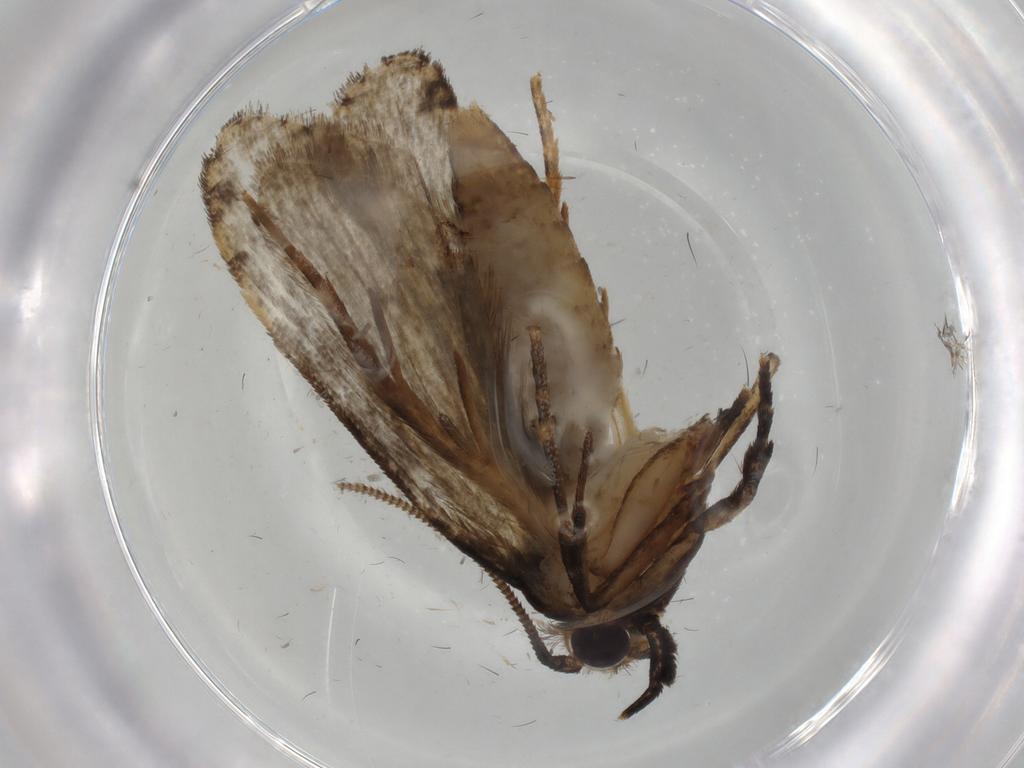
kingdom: Animalia
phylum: Arthropoda
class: Insecta
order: Lepidoptera
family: Tineidae
